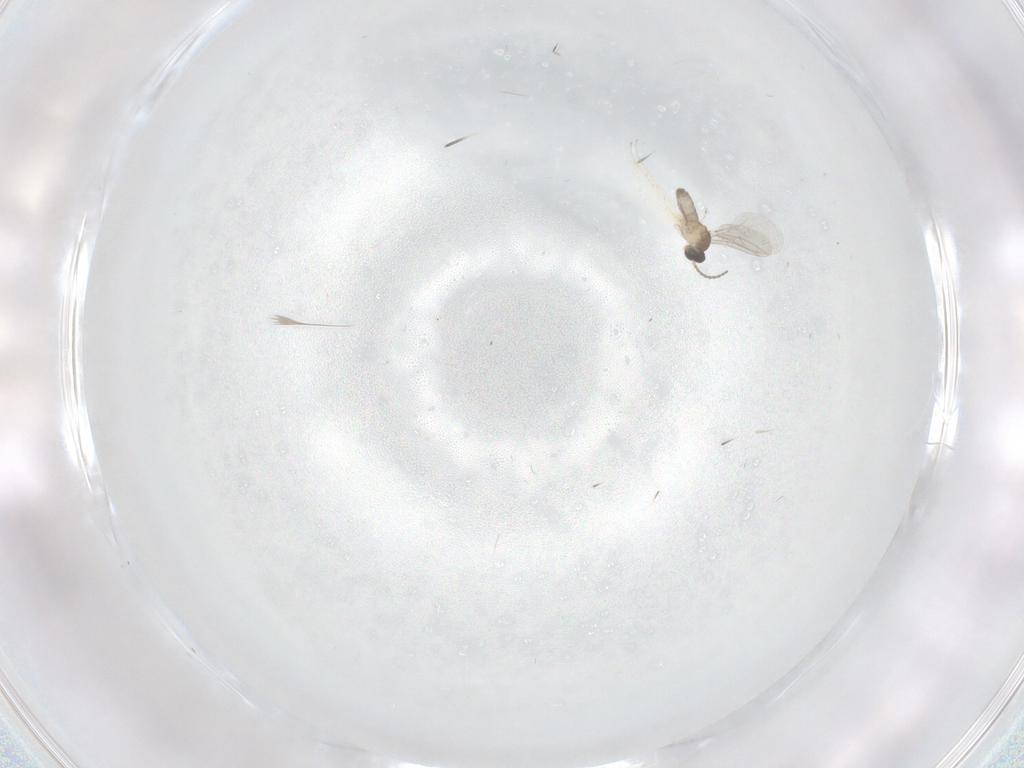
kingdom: Animalia
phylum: Arthropoda
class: Insecta
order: Diptera
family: Cecidomyiidae
